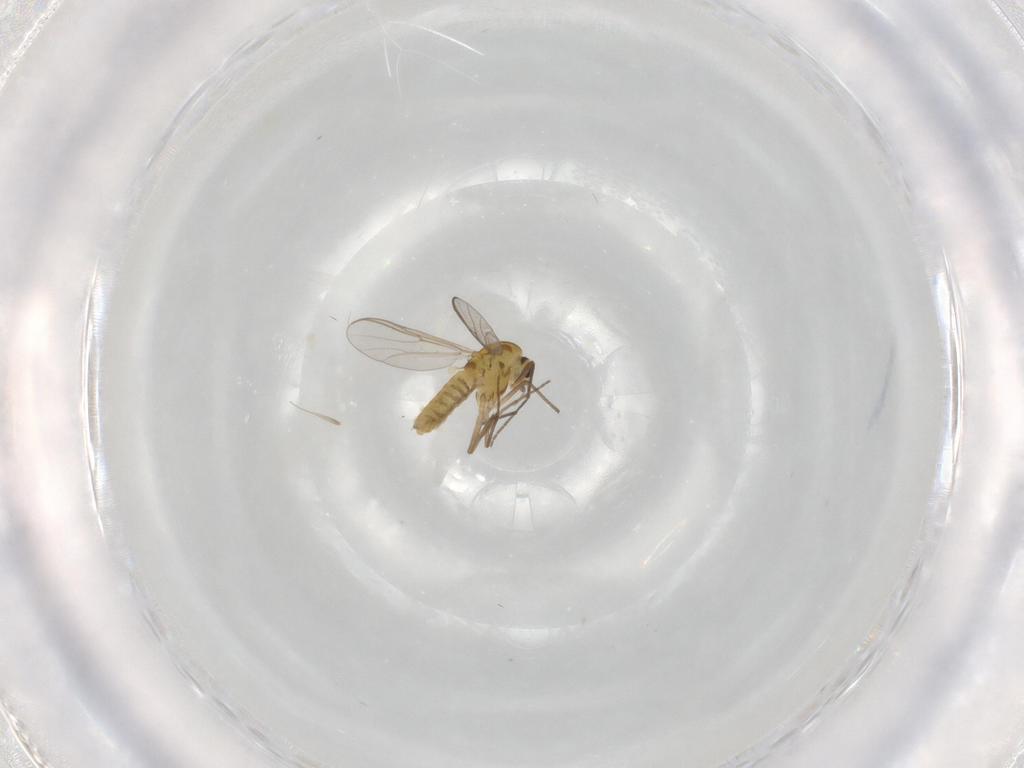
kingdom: Animalia
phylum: Arthropoda
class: Insecta
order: Diptera
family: Chironomidae
